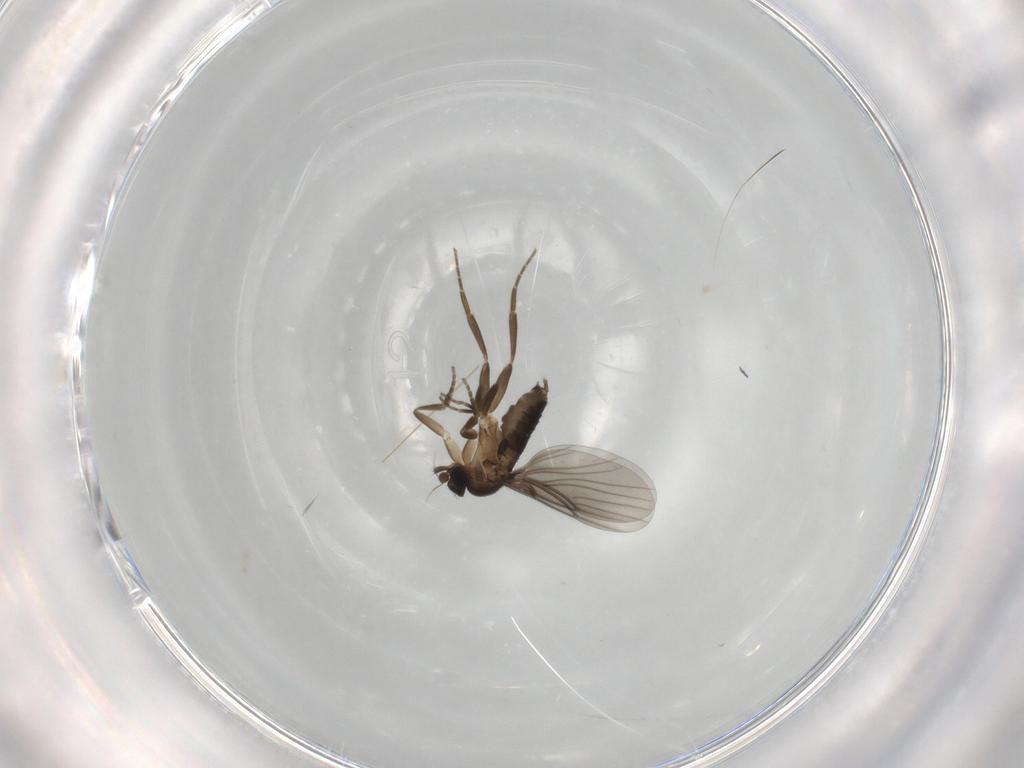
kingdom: Animalia
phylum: Arthropoda
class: Insecta
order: Diptera
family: Phoridae
